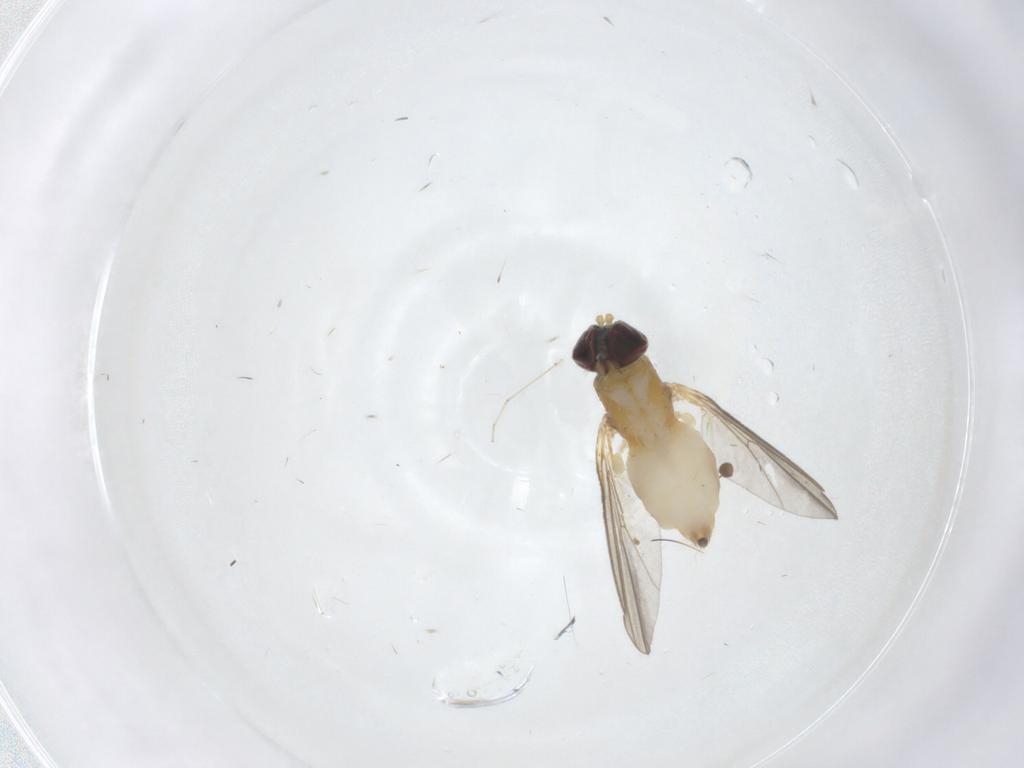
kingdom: Animalia
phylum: Arthropoda
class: Insecta
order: Diptera
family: Dolichopodidae
